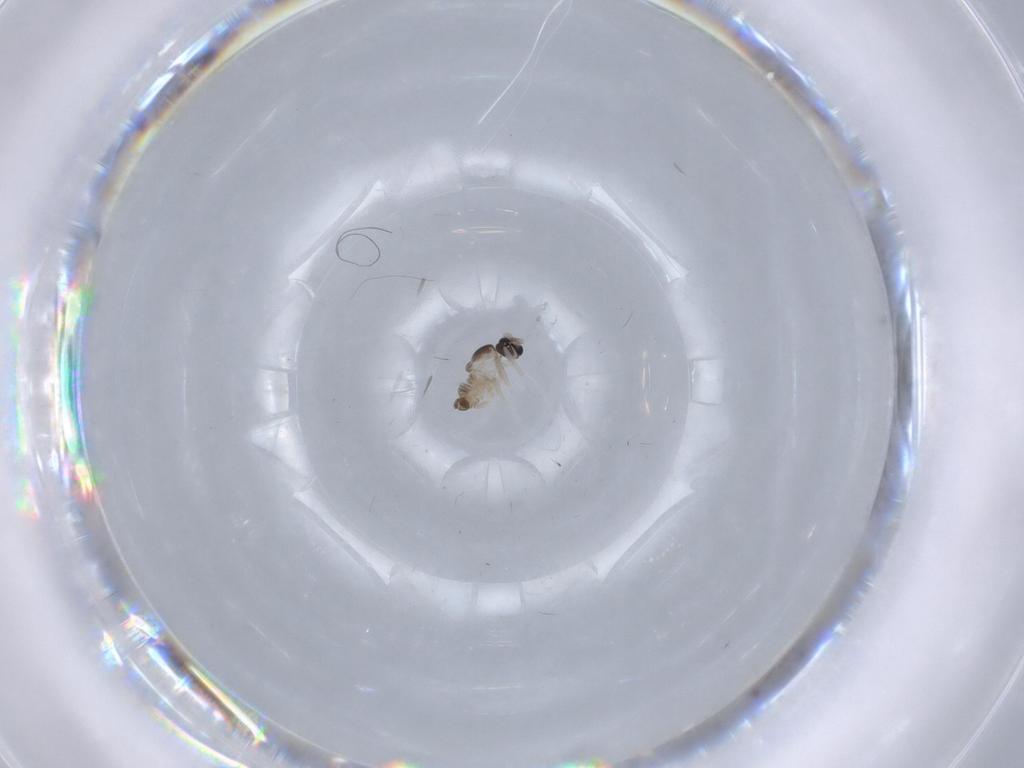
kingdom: Animalia
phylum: Arthropoda
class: Insecta
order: Diptera
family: Cecidomyiidae
